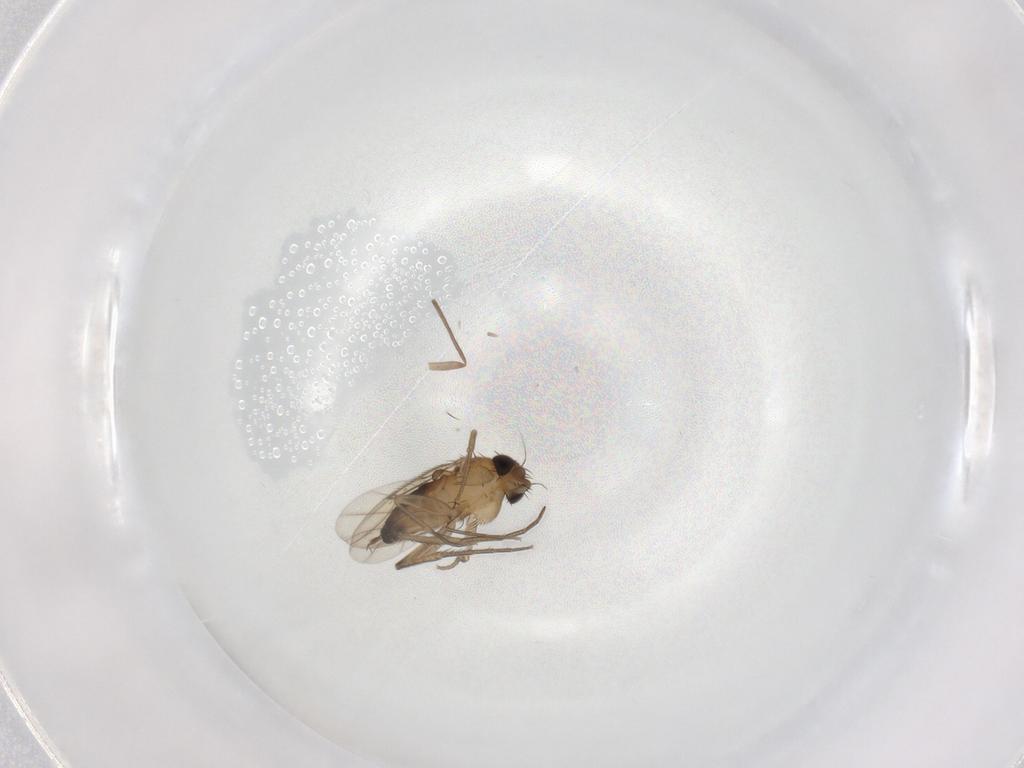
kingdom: Animalia
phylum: Arthropoda
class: Insecta
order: Diptera
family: Phoridae
